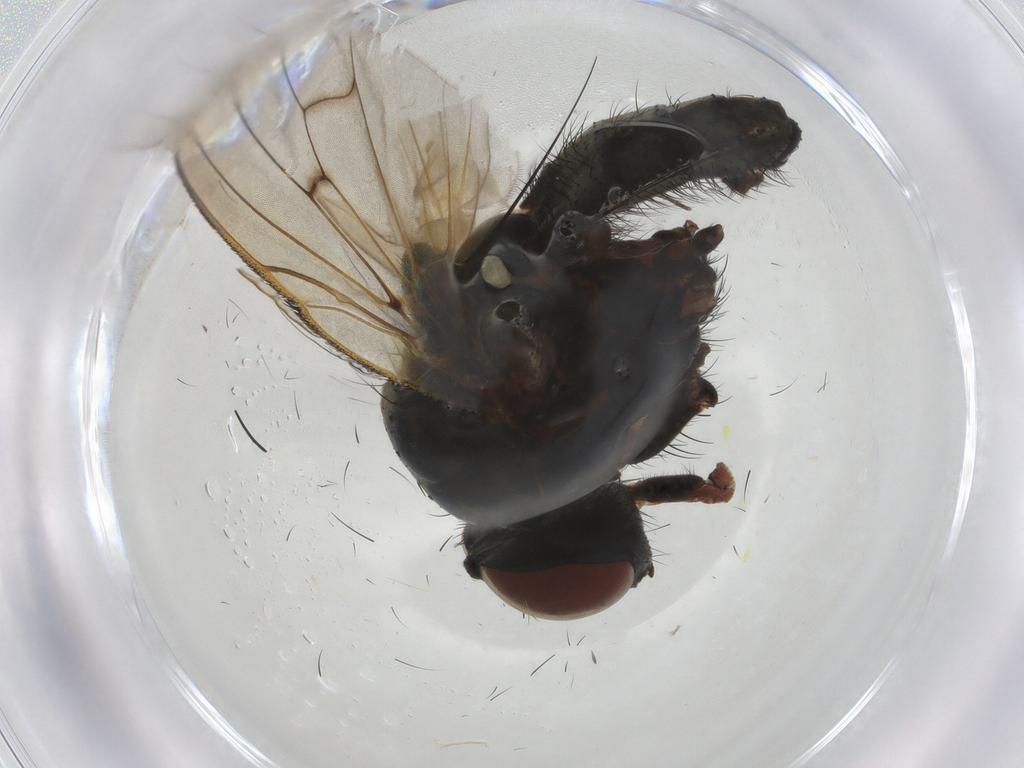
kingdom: Animalia
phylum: Arthropoda
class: Insecta
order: Diptera
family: Anthomyiidae
